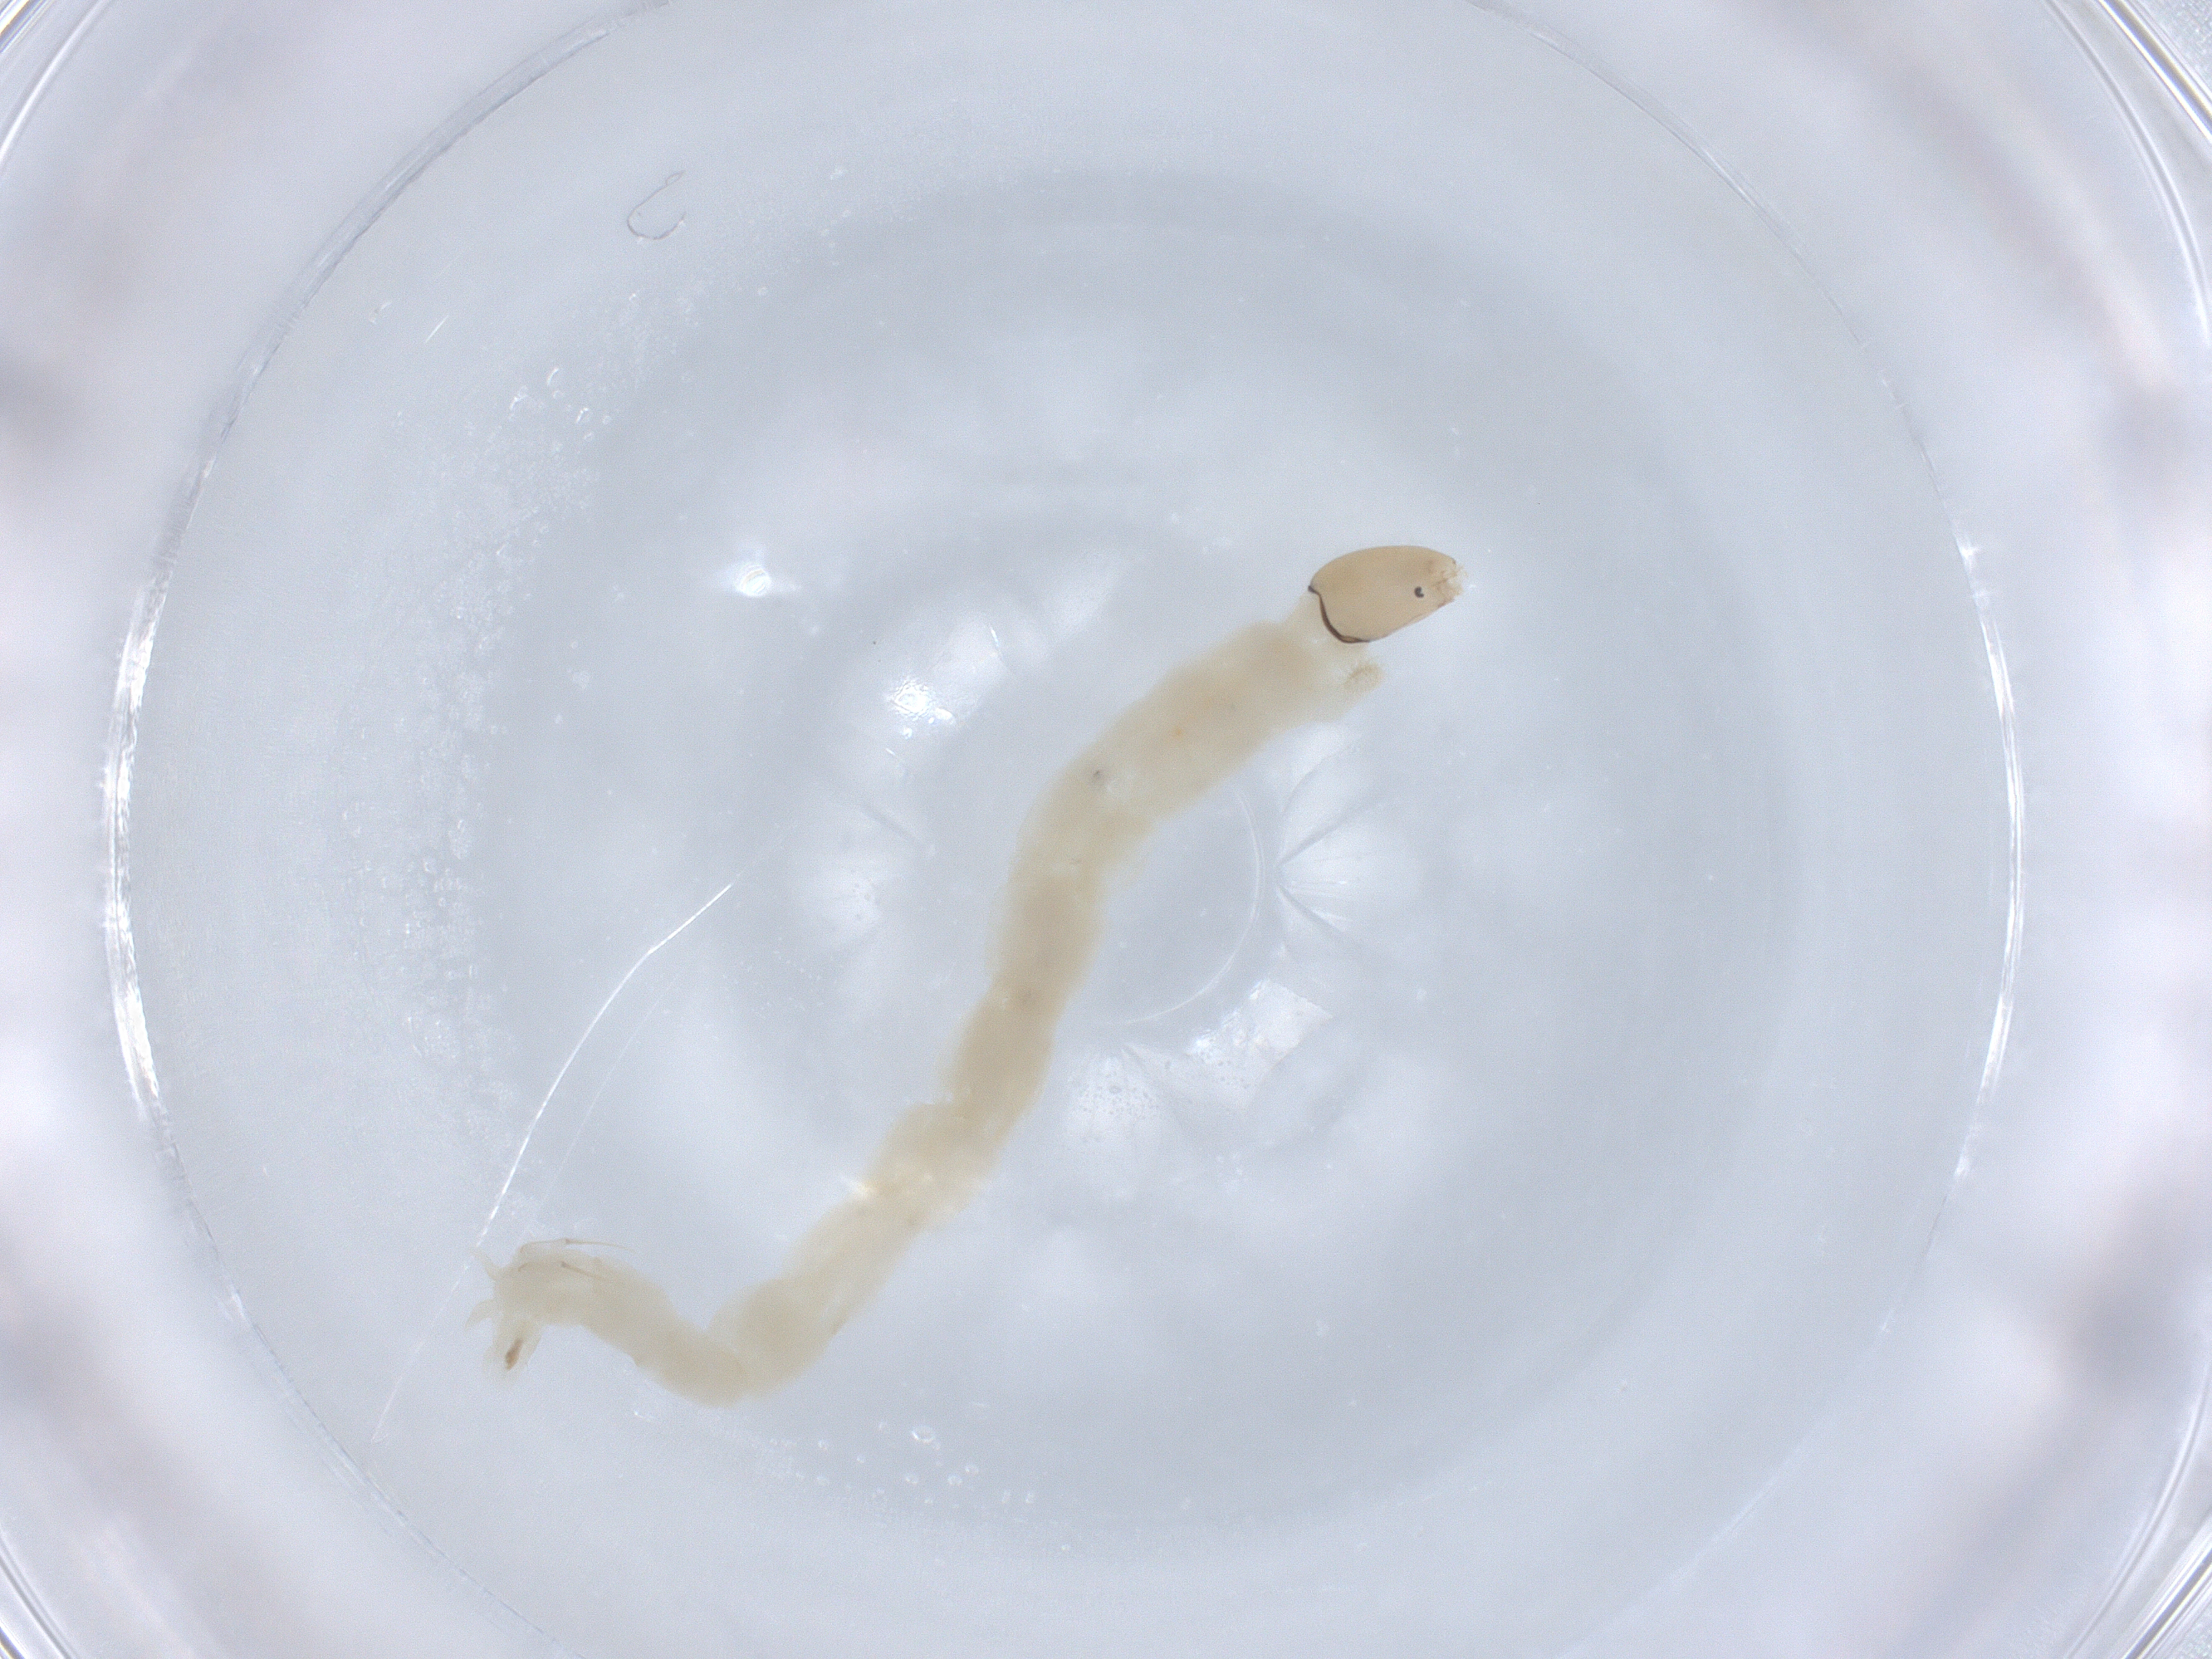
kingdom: Animalia
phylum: Arthropoda
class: Insecta
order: Diptera
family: Chironomidae
